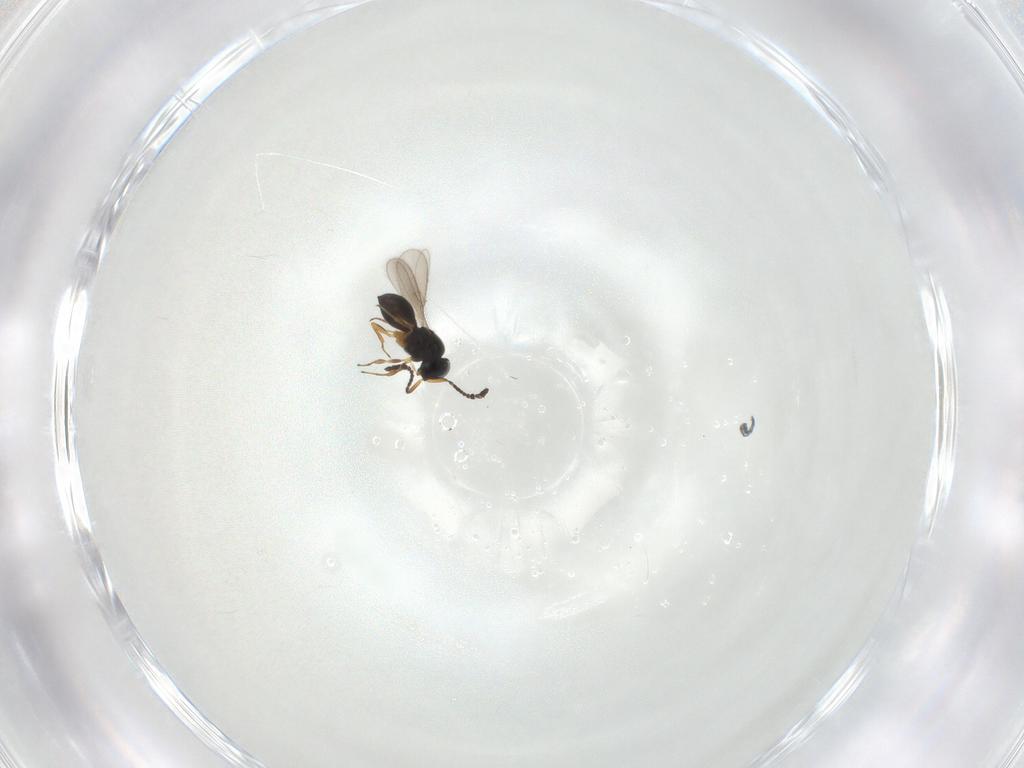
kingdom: Animalia
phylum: Arthropoda
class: Insecta
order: Hymenoptera
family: Scelionidae
